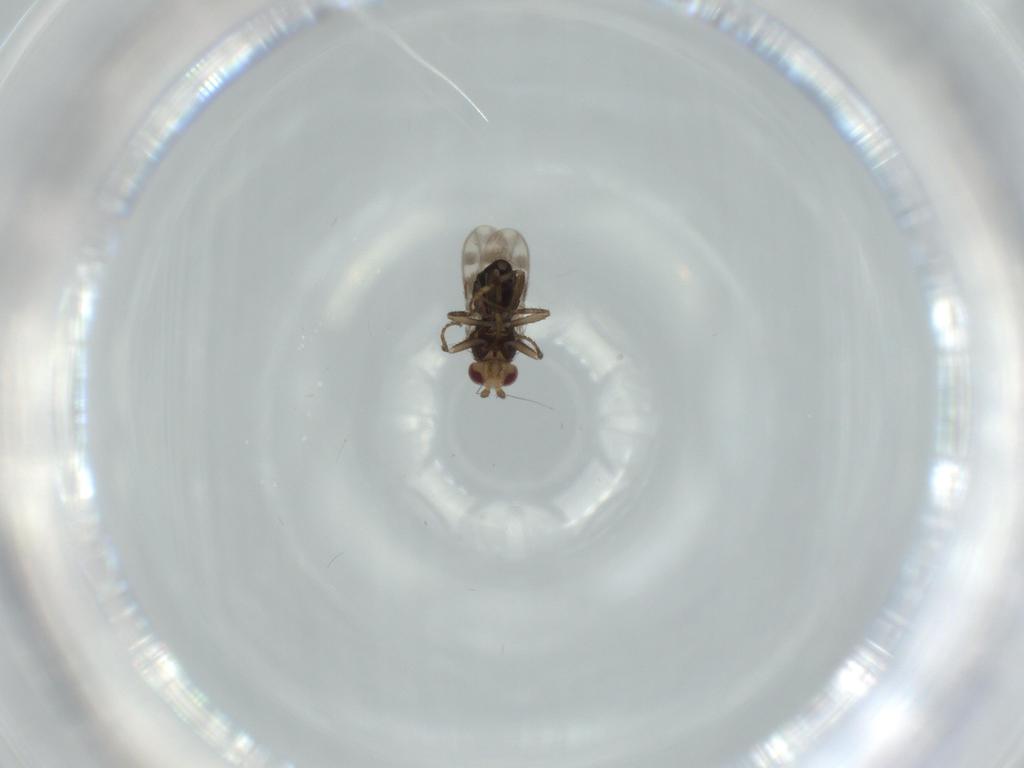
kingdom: Animalia
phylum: Arthropoda
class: Insecta
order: Diptera
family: Sphaeroceridae
